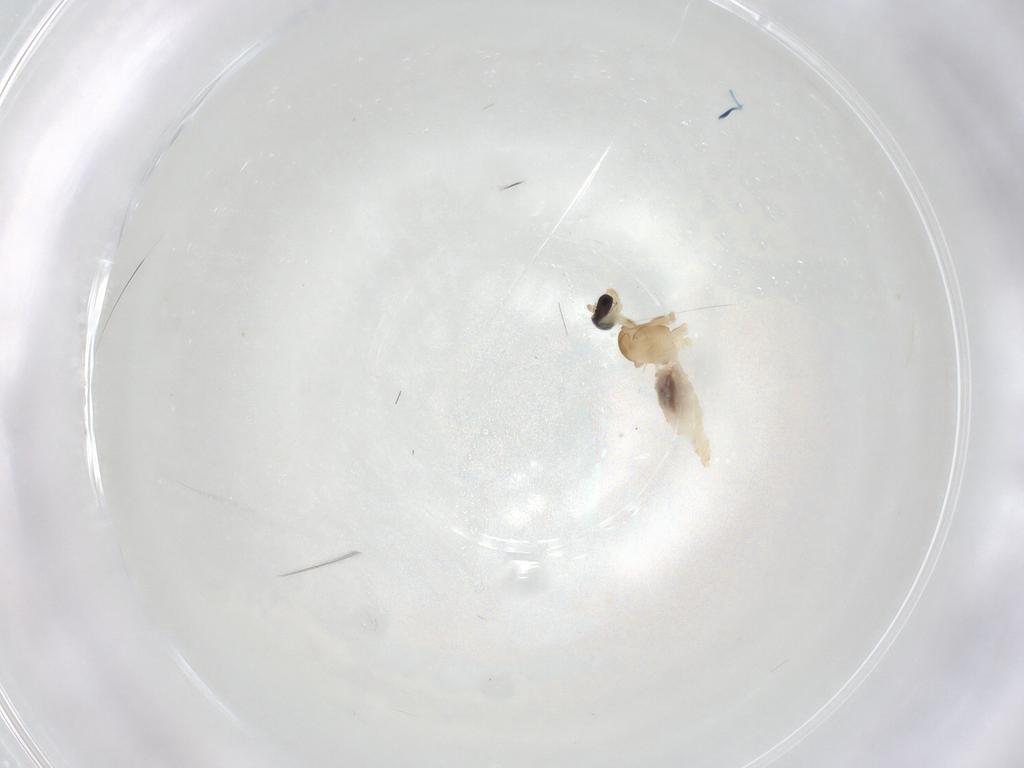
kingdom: Animalia
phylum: Arthropoda
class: Insecta
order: Diptera
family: Cecidomyiidae
